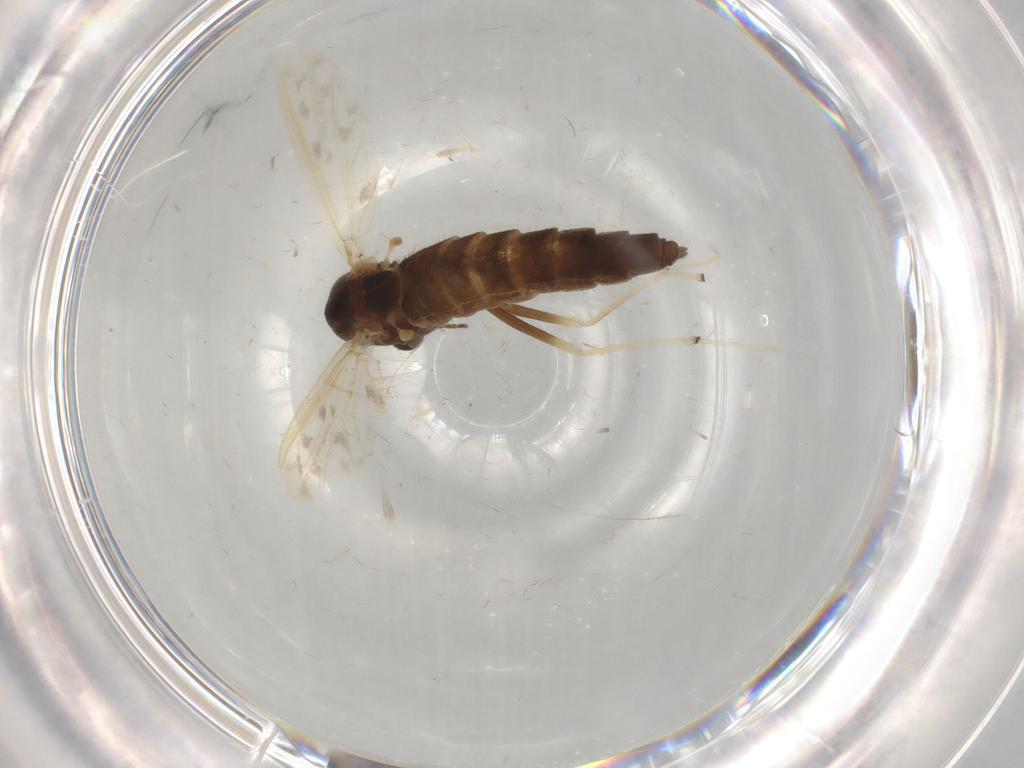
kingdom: Animalia
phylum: Arthropoda
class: Insecta
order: Diptera
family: Chironomidae
